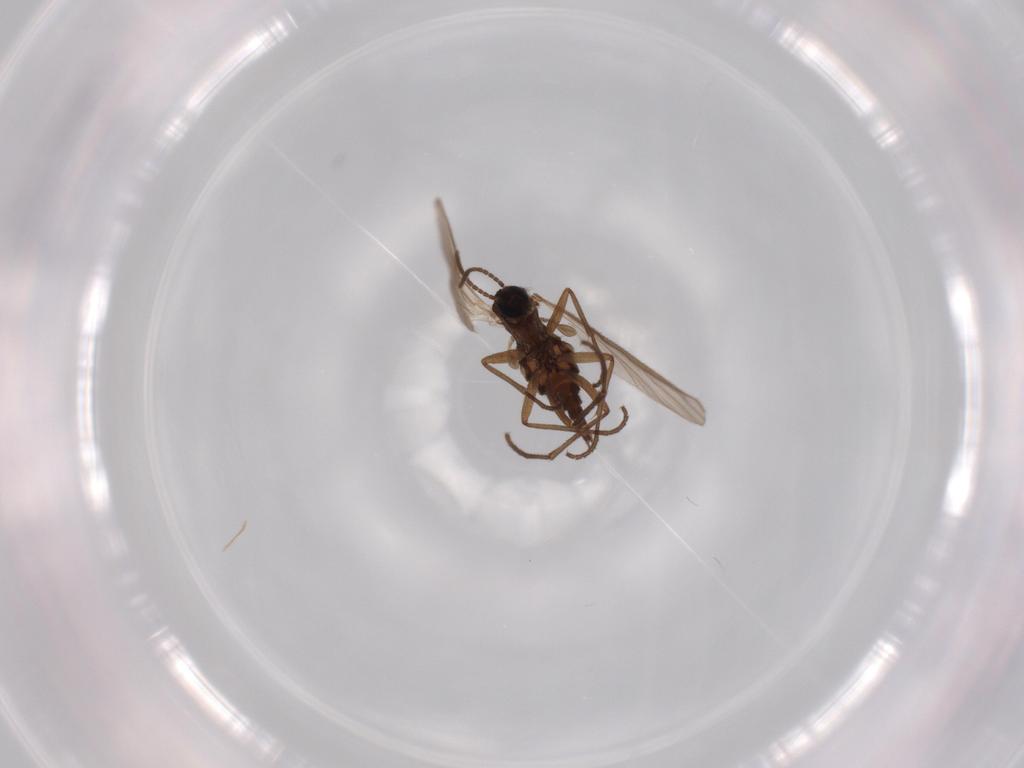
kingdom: Animalia
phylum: Arthropoda
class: Insecta
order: Diptera
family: Sciaridae
